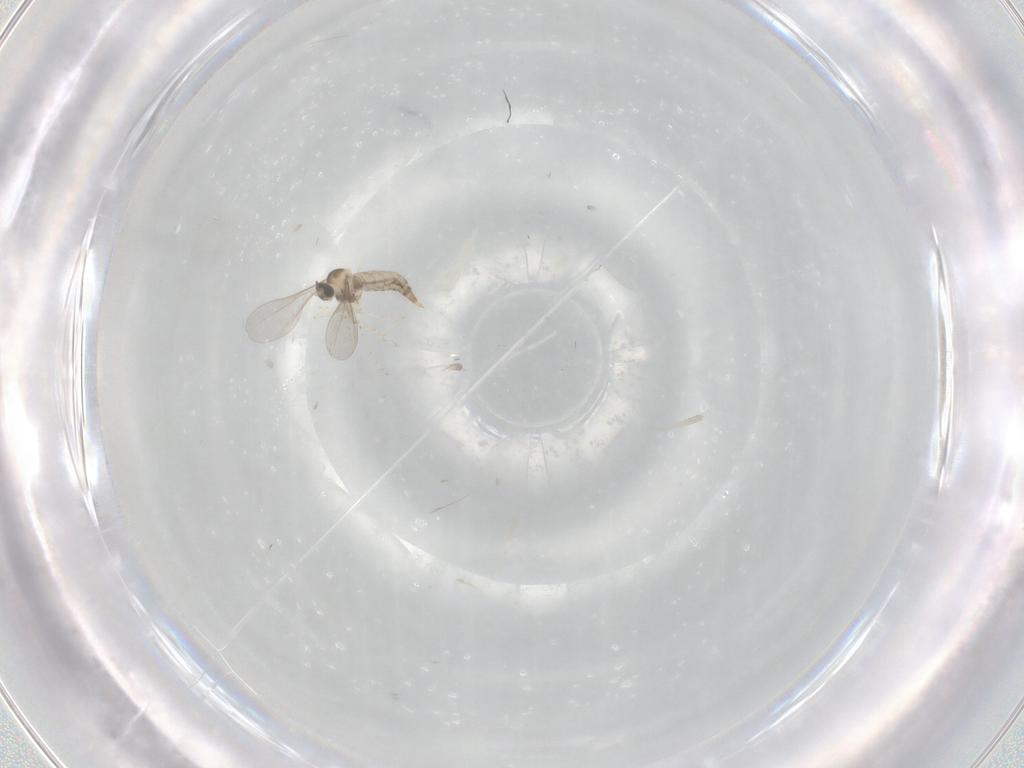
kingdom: Animalia
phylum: Arthropoda
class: Insecta
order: Diptera
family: Cecidomyiidae
